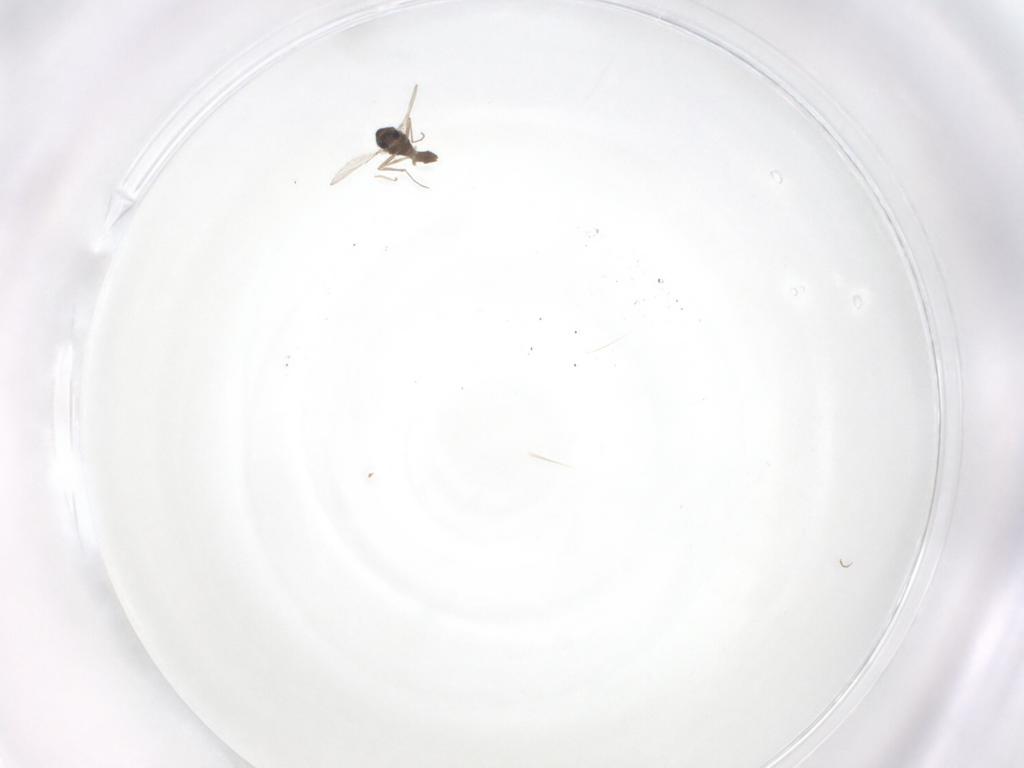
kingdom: Animalia
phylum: Arthropoda
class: Insecta
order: Diptera
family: Chironomidae
